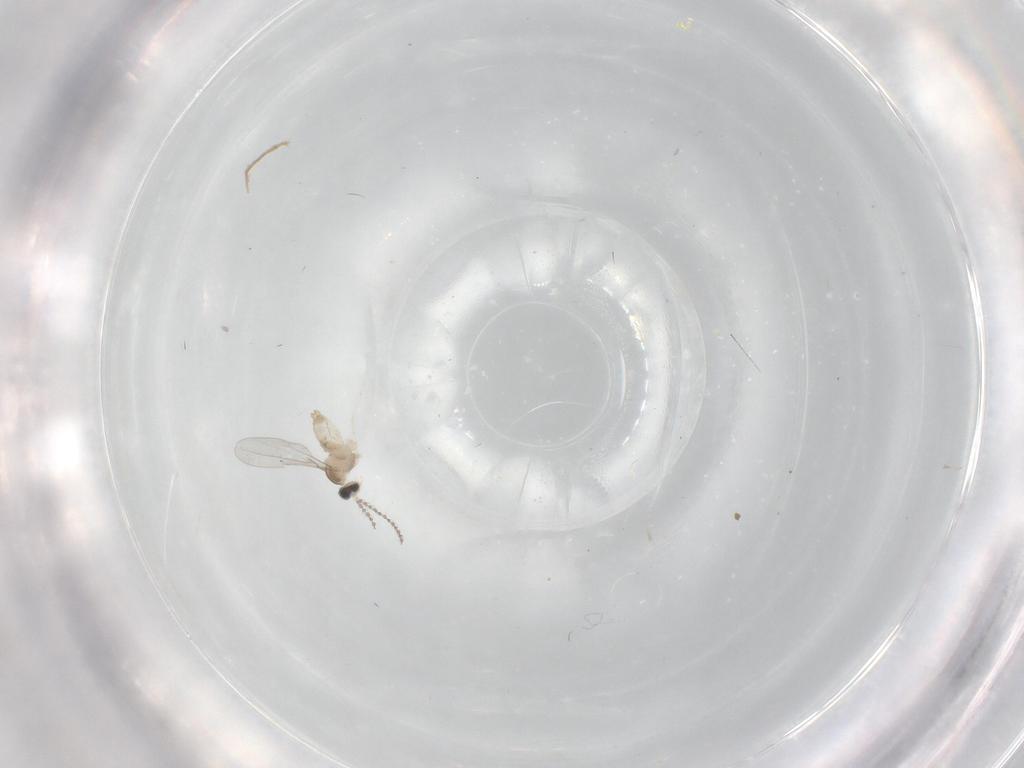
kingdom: Animalia
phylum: Arthropoda
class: Insecta
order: Diptera
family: Cecidomyiidae
